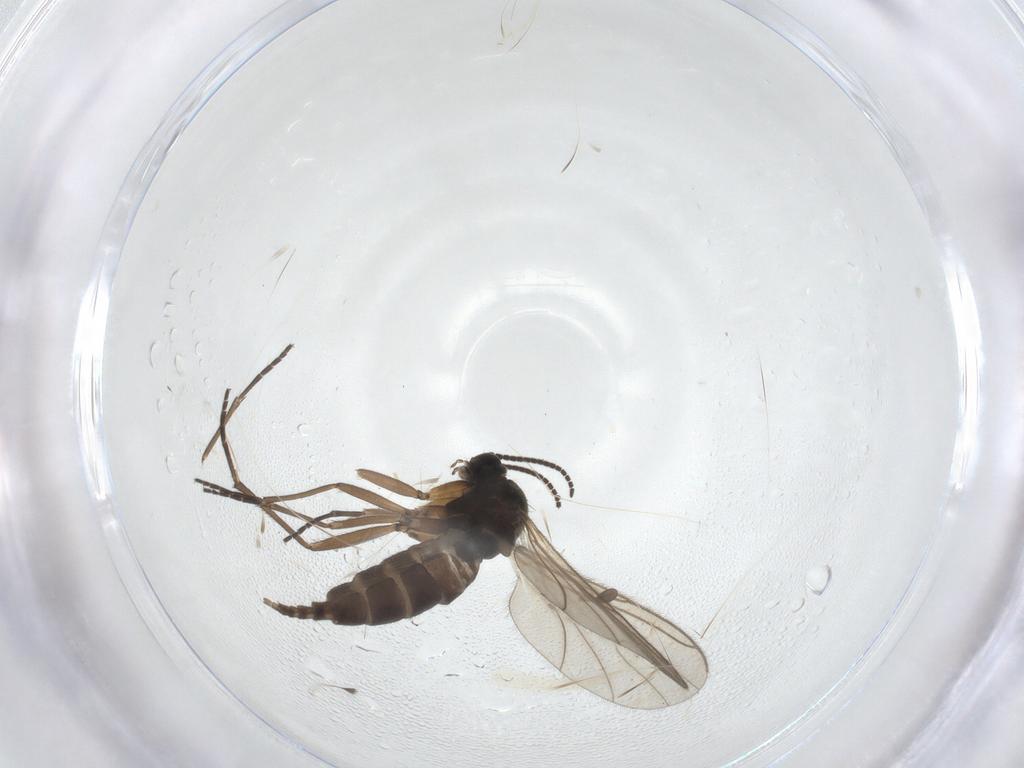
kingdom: Animalia
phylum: Arthropoda
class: Insecta
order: Diptera
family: Sciaridae
